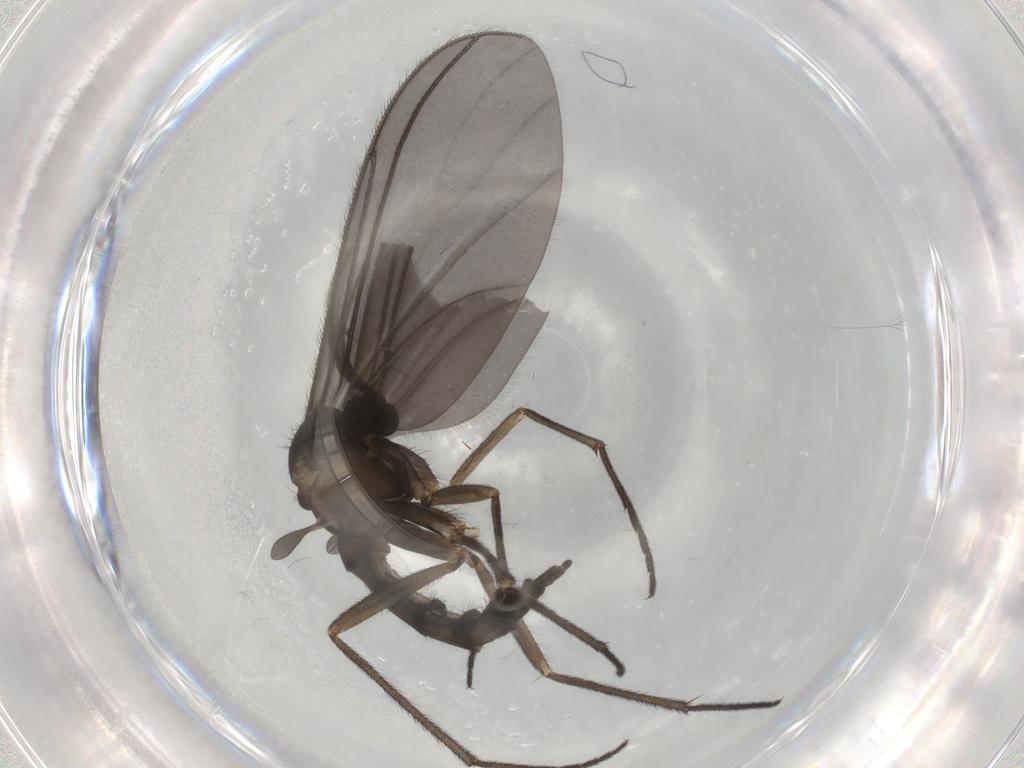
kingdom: Animalia
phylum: Arthropoda
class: Insecta
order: Diptera
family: Sciaridae
